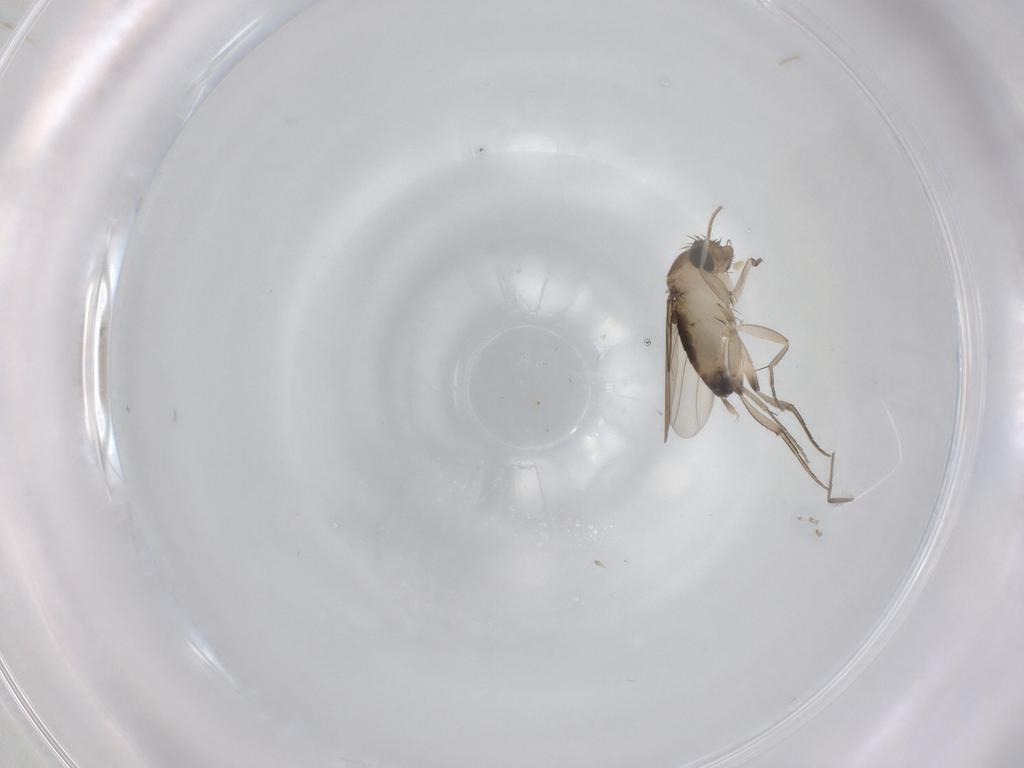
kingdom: Animalia
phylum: Arthropoda
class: Insecta
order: Diptera
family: Phoridae
